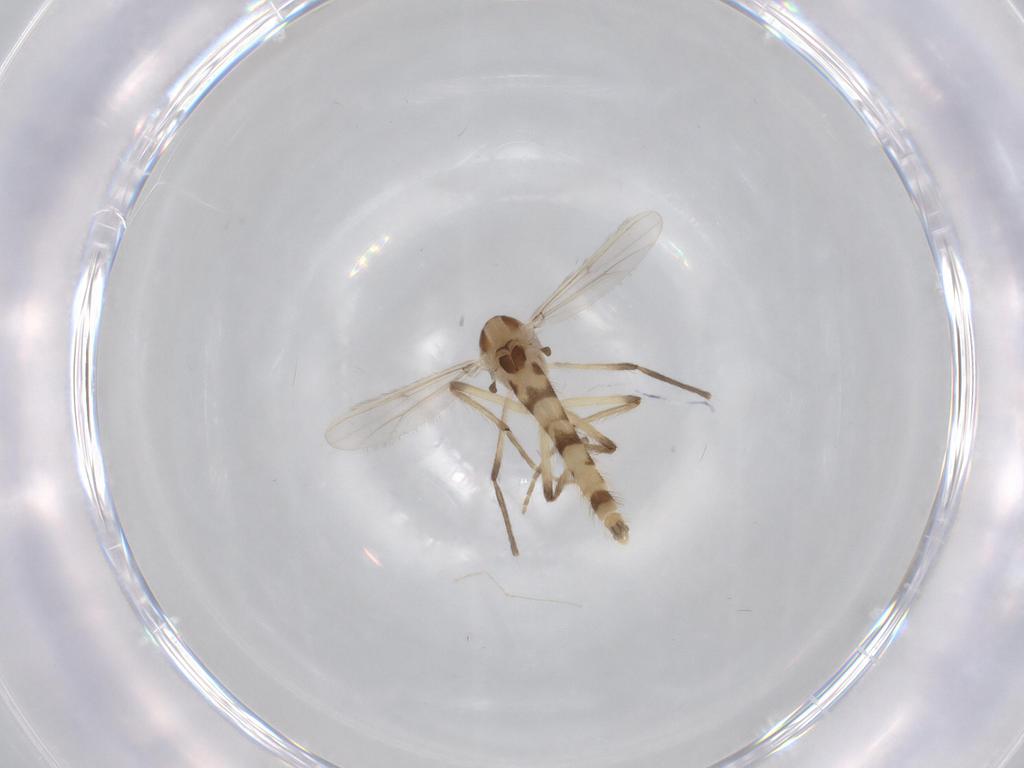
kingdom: Animalia
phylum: Arthropoda
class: Insecta
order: Diptera
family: Chironomidae
